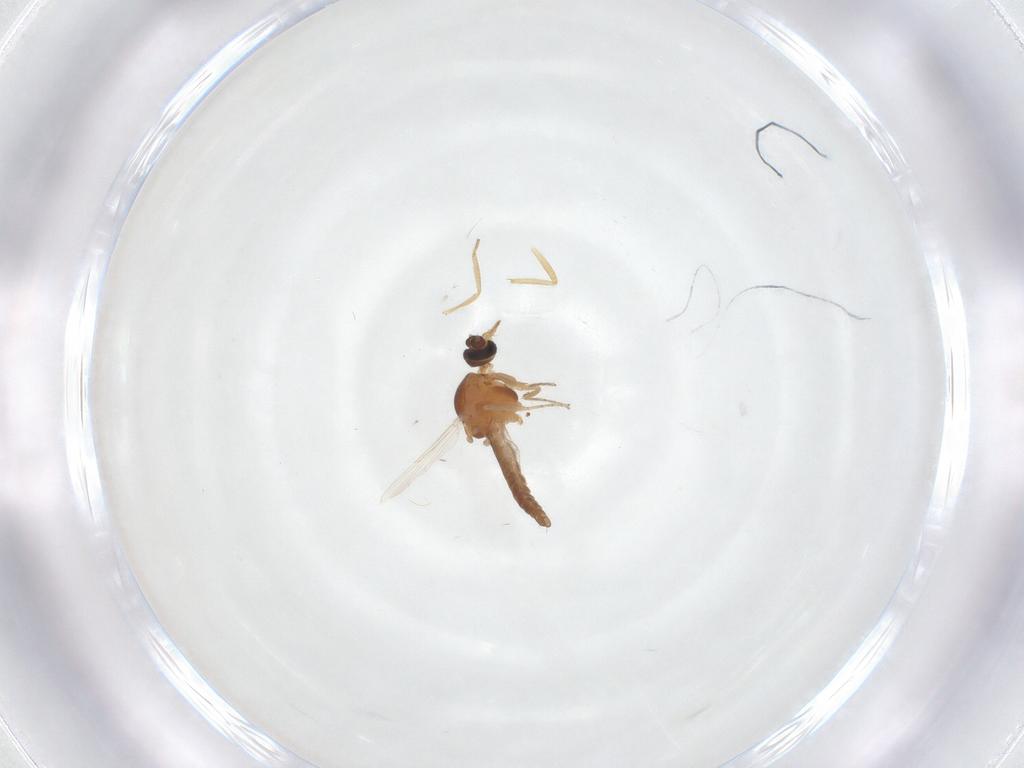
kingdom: Animalia
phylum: Arthropoda
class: Insecta
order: Diptera
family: Ceratopogonidae
